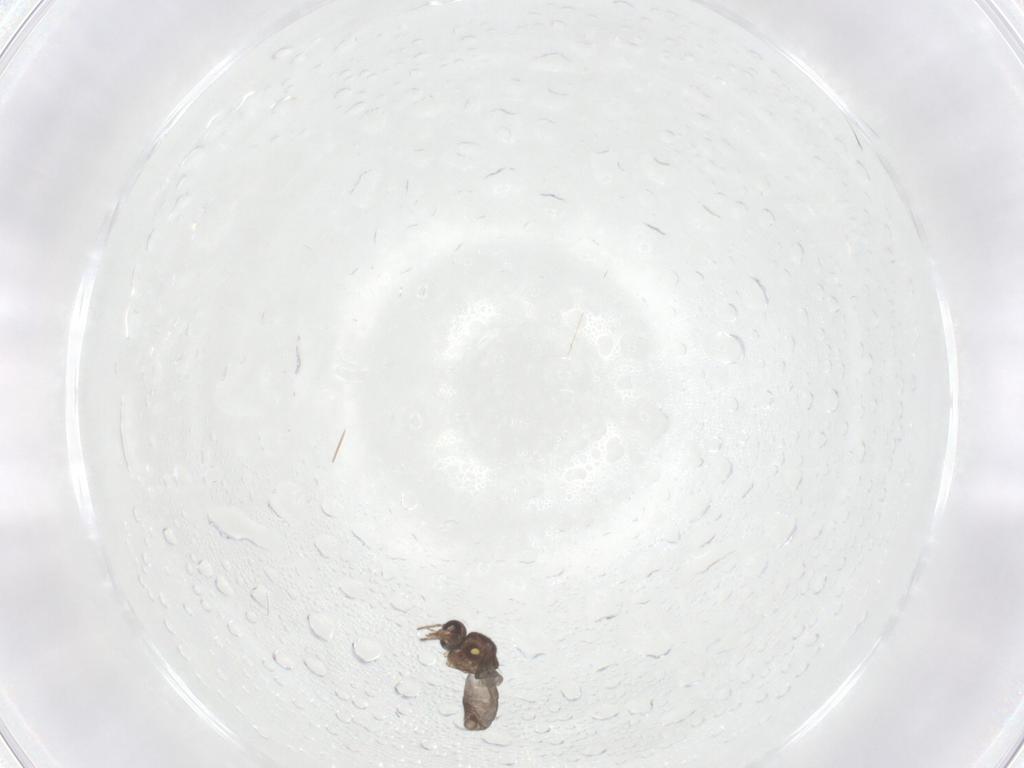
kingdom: Animalia
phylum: Arthropoda
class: Insecta
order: Diptera
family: Ceratopogonidae
